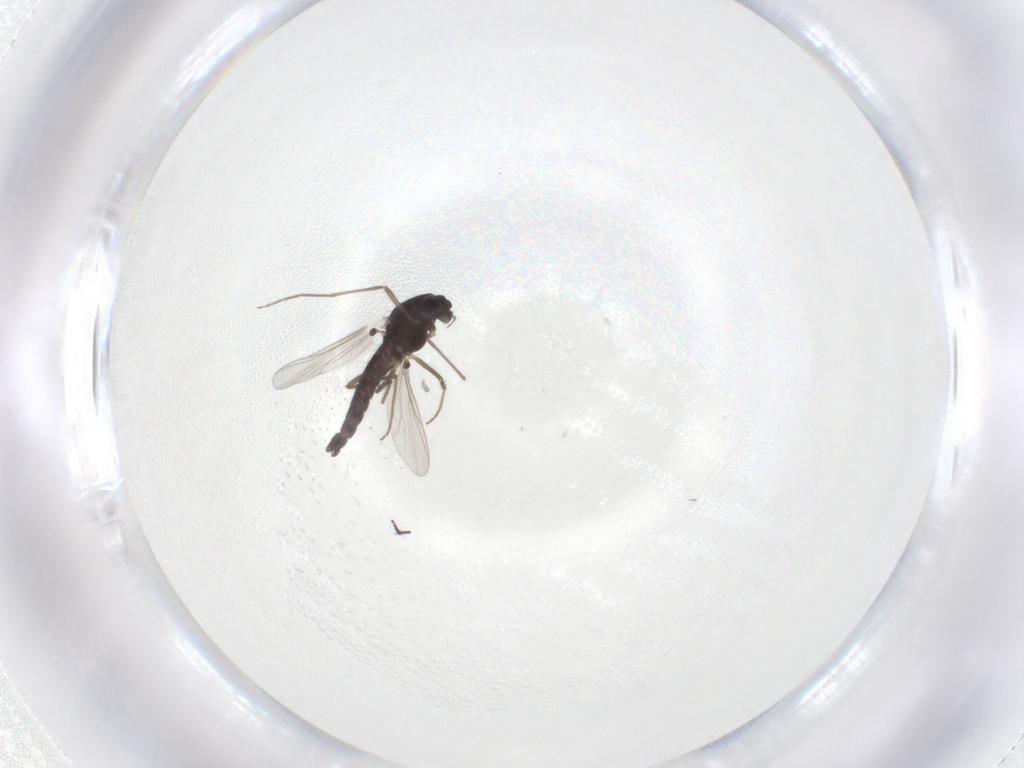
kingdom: Animalia
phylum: Arthropoda
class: Insecta
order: Diptera
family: Chironomidae
